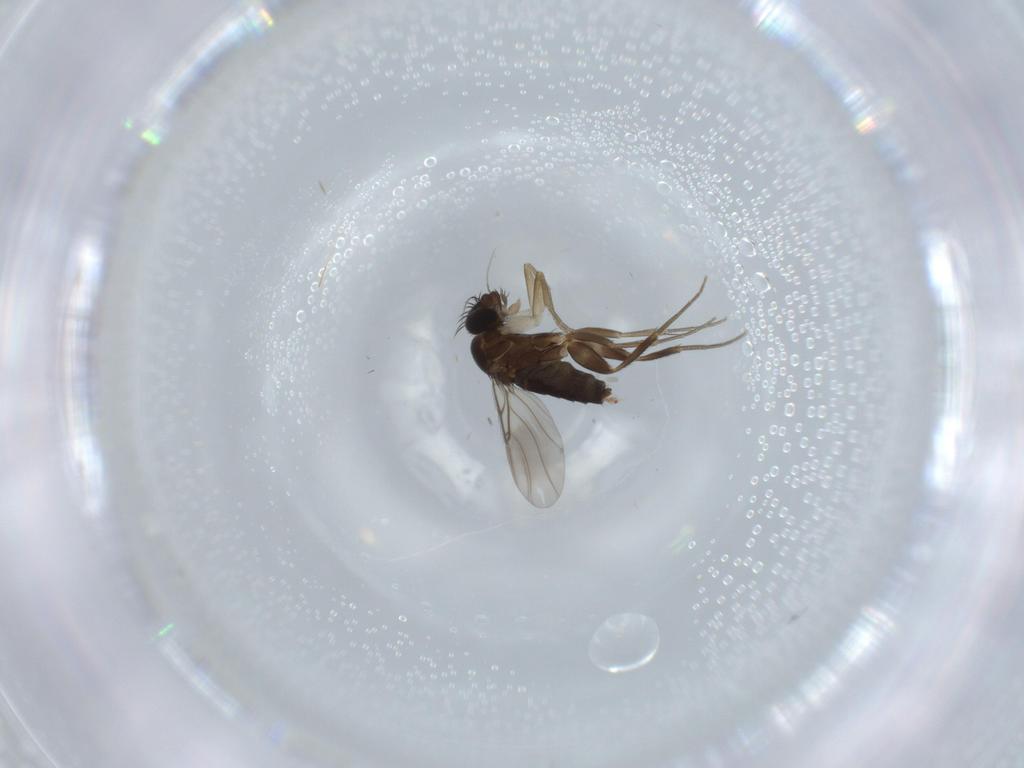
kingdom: Animalia
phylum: Arthropoda
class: Insecta
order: Diptera
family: Phoridae
